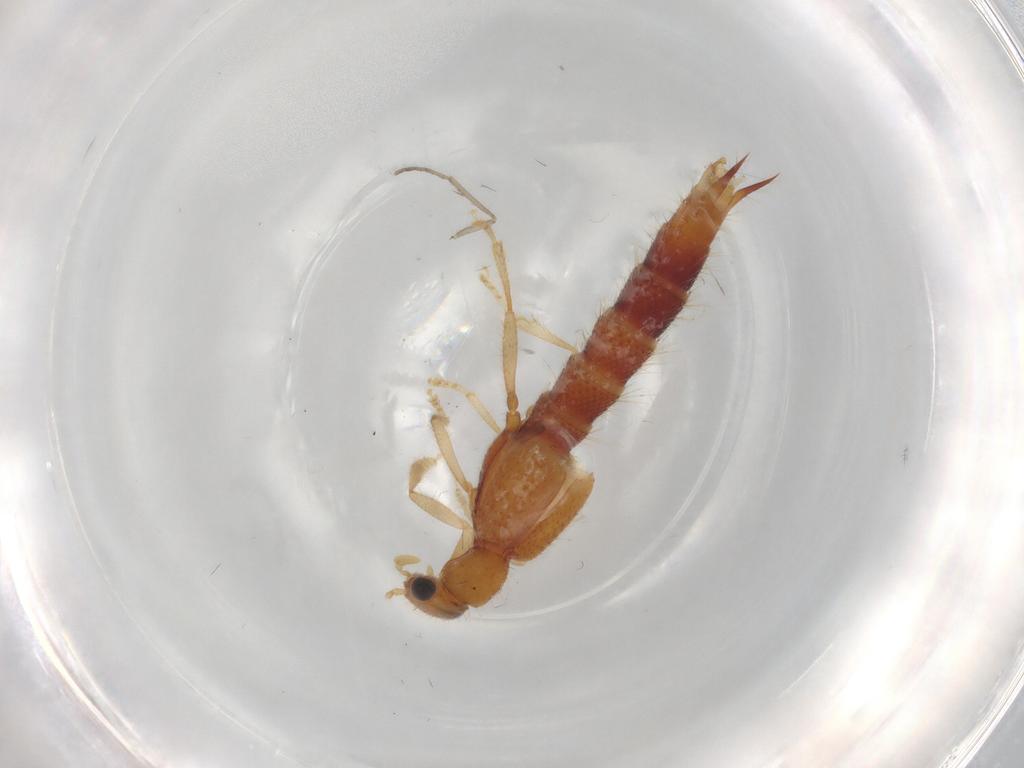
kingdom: Animalia
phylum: Arthropoda
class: Insecta
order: Coleoptera
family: Staphylinidae
